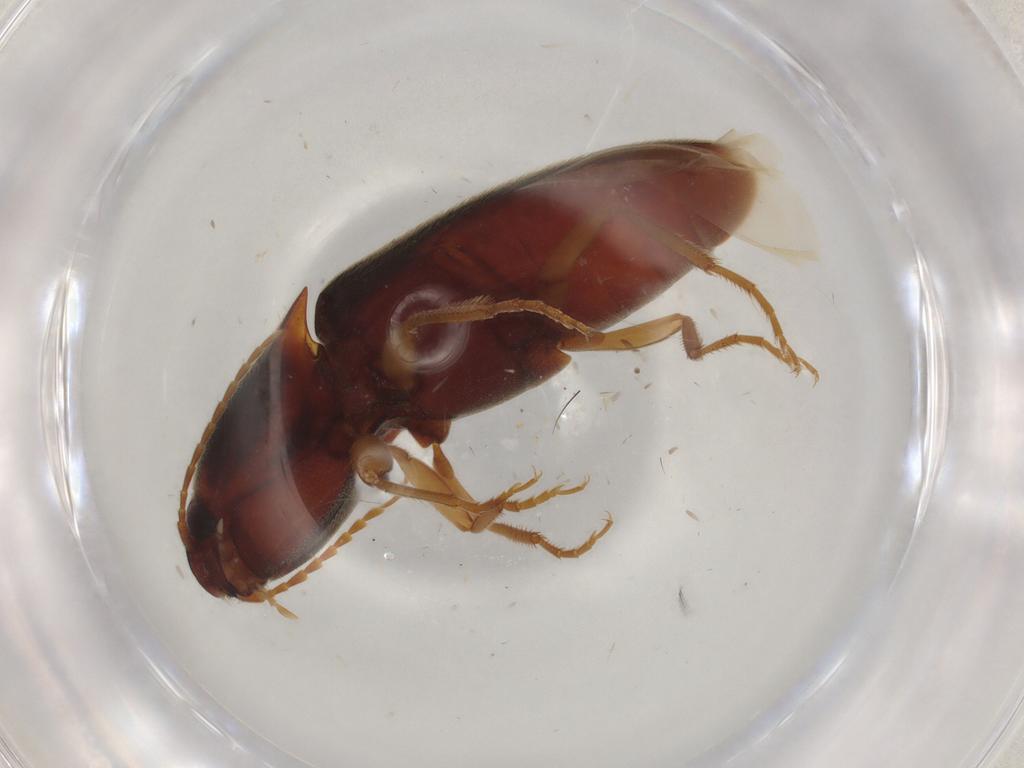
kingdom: Animalia
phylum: Arthropoda
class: Insecta
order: Coleoptera
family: Elateridae
